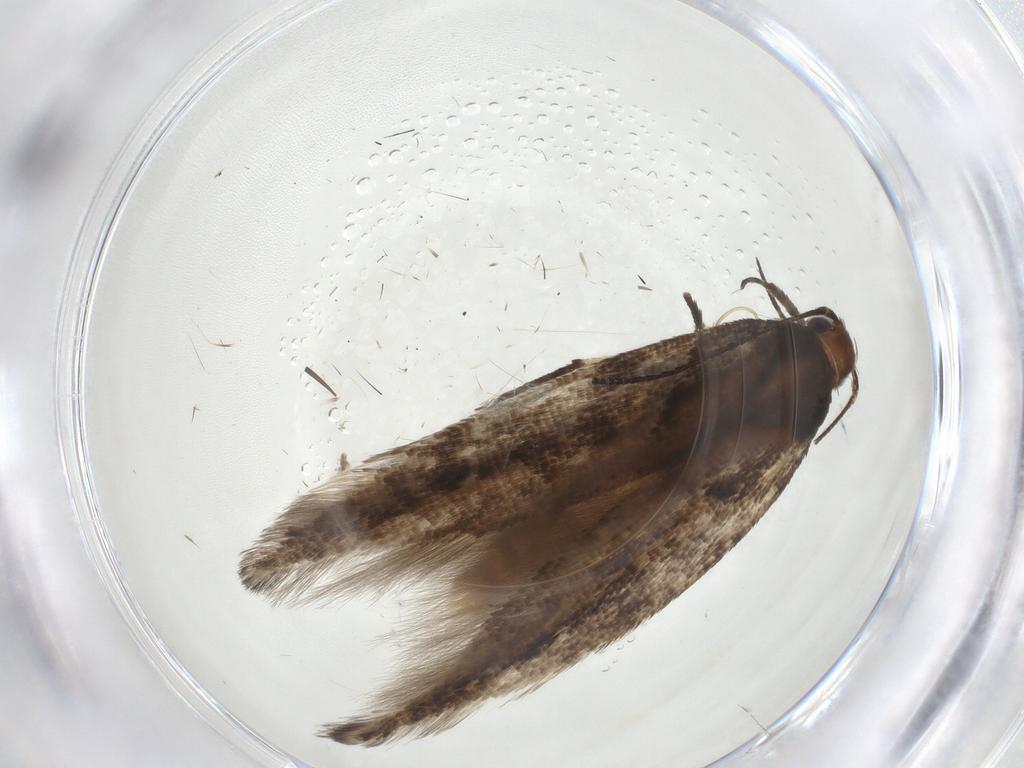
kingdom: Animalia
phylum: Arthropoda
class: Insecta
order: Lepidoptera
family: Gelechiidae
